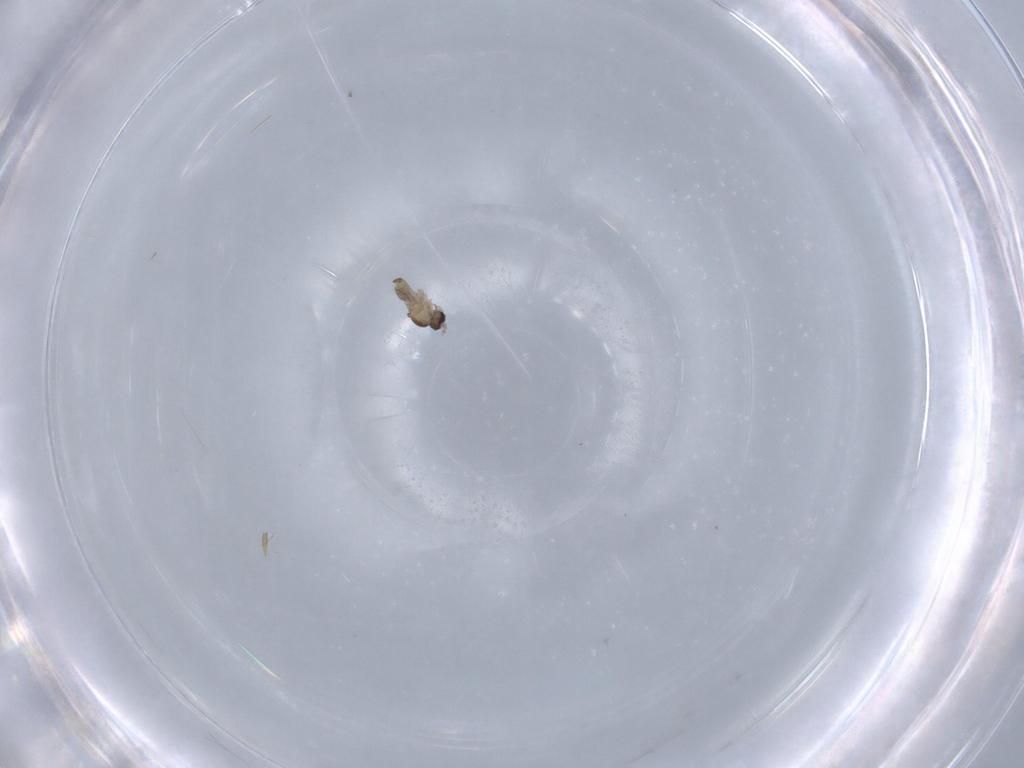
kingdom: Animalia
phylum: Arthropoda
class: Insecta
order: Diptera
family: Cecidomyiidae
